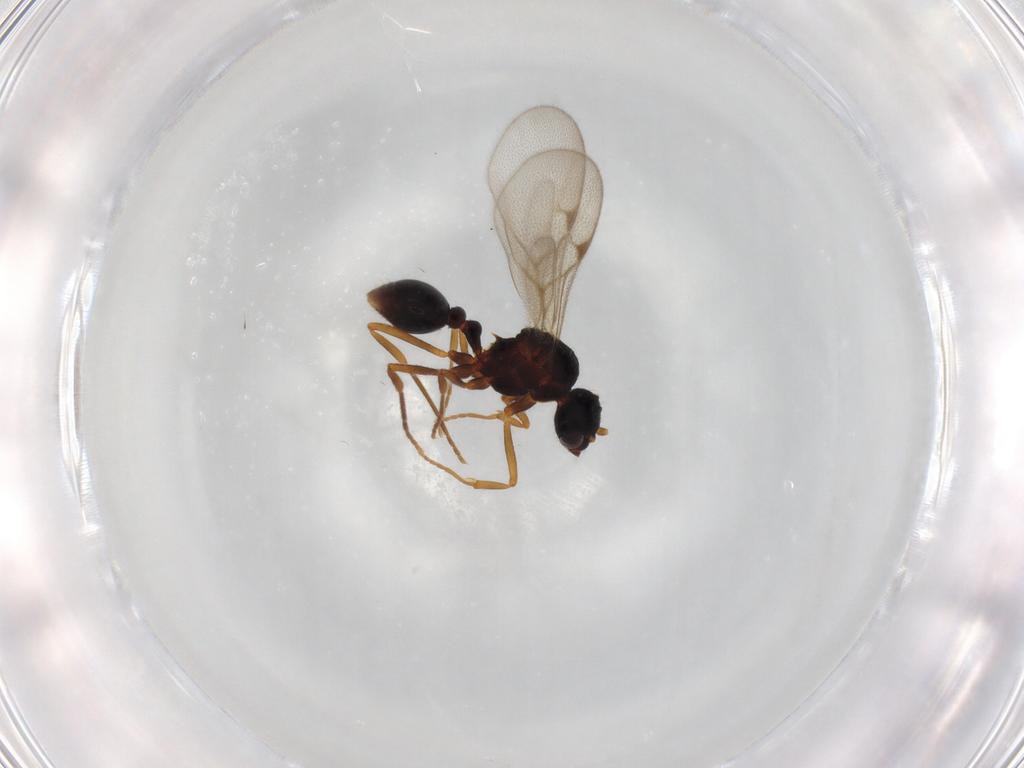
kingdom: Animalia
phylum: Arthropoda
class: Insecta
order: Hymenoptera
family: Formicidae
